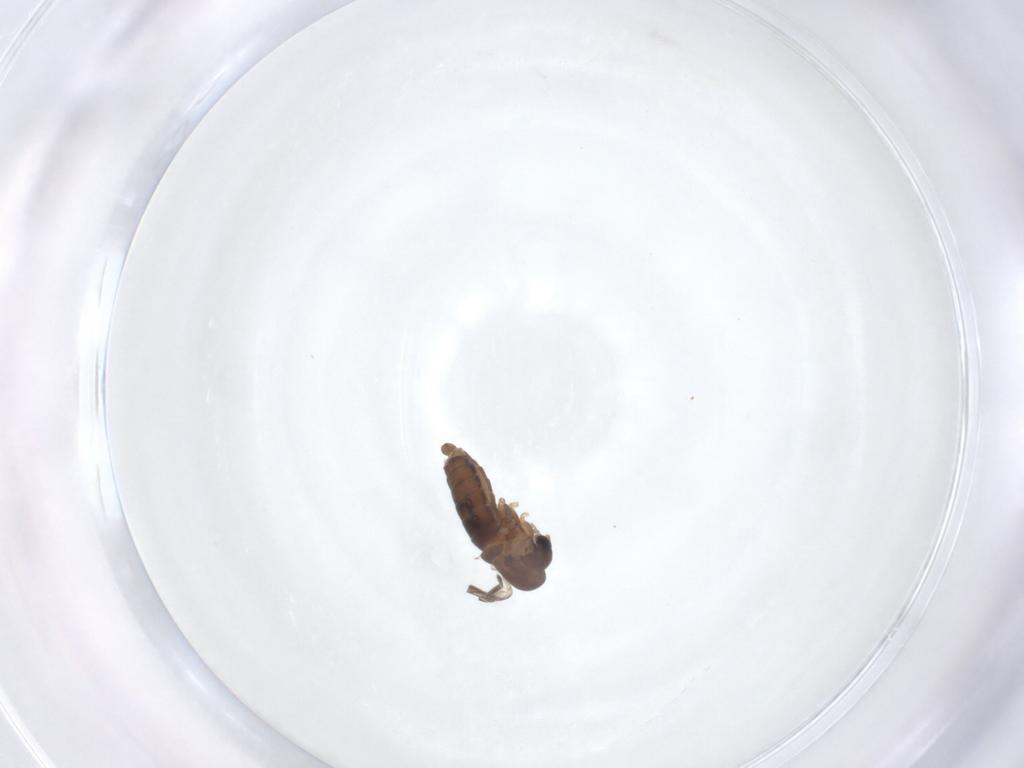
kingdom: Animalia
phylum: Arthropoda
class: Insecta
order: Diptera
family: Psychodidae
